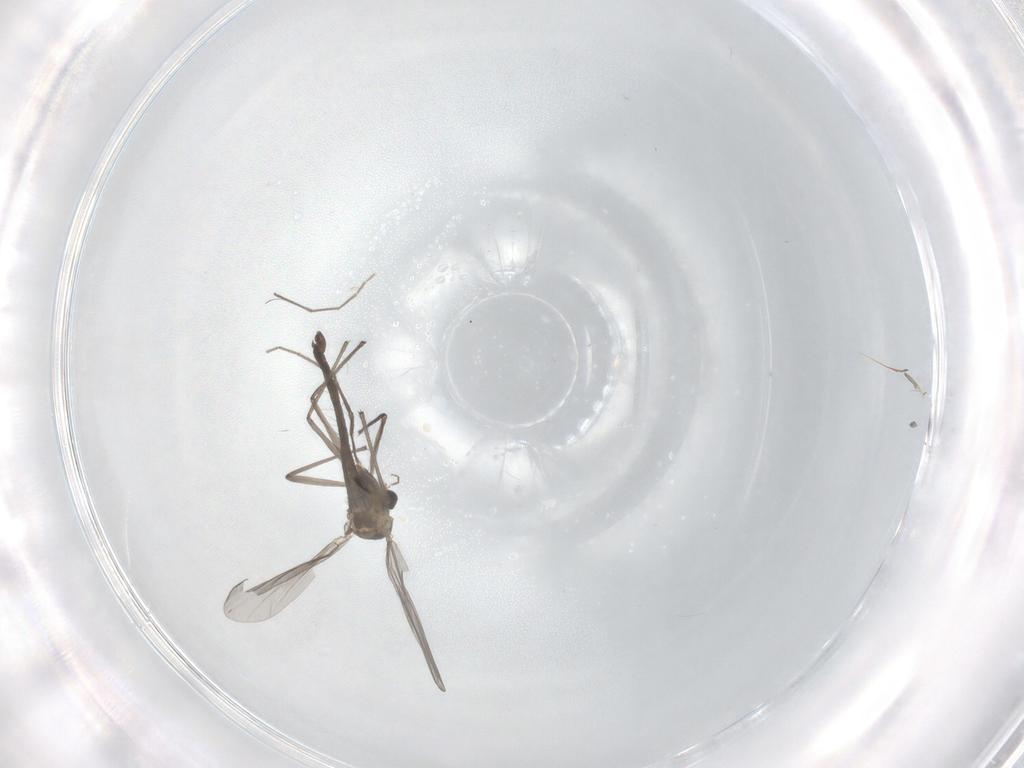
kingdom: Animalia
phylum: Arthropoda
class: Insecta
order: Diptera
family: Chironomidae
